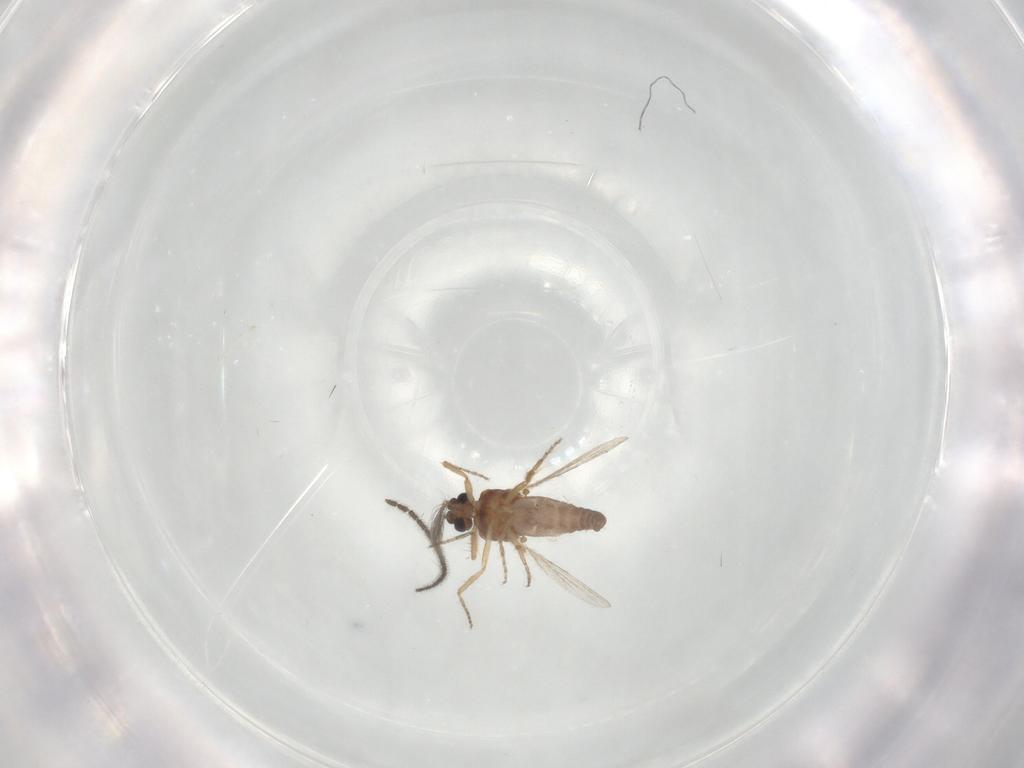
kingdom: Animalia
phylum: Arthropoda
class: Insecta
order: Diptera
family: Ceratopogonidae
